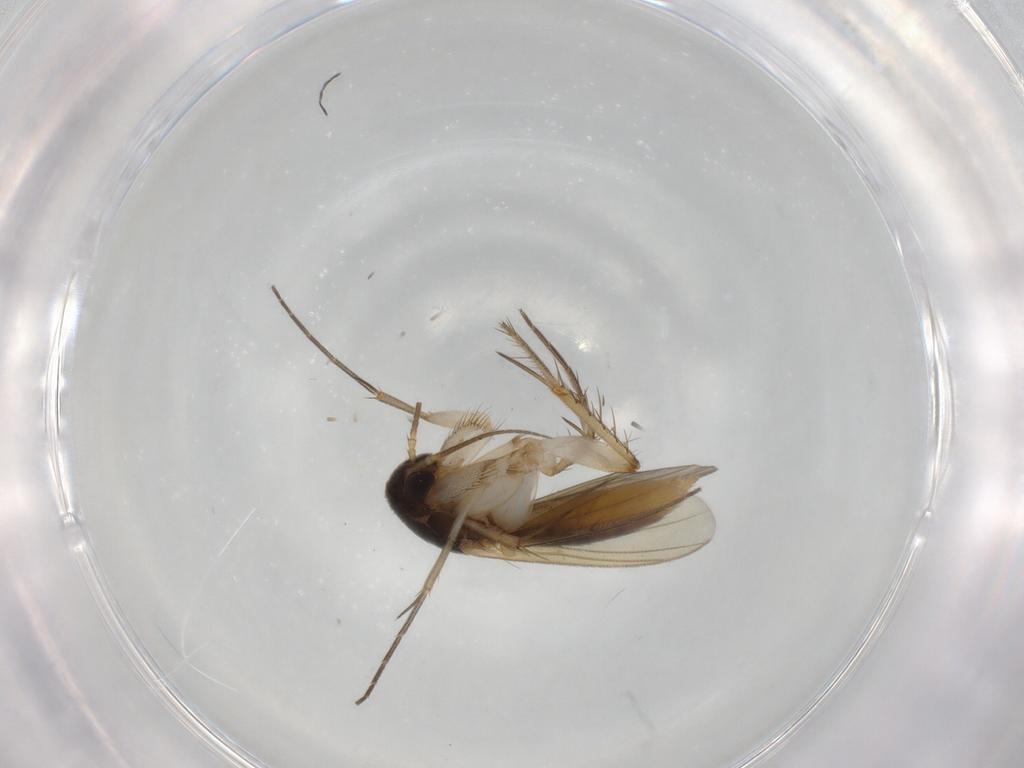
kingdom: Animalia
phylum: Arthropoda
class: Insecta
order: Diptera
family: Mycetophilidae
